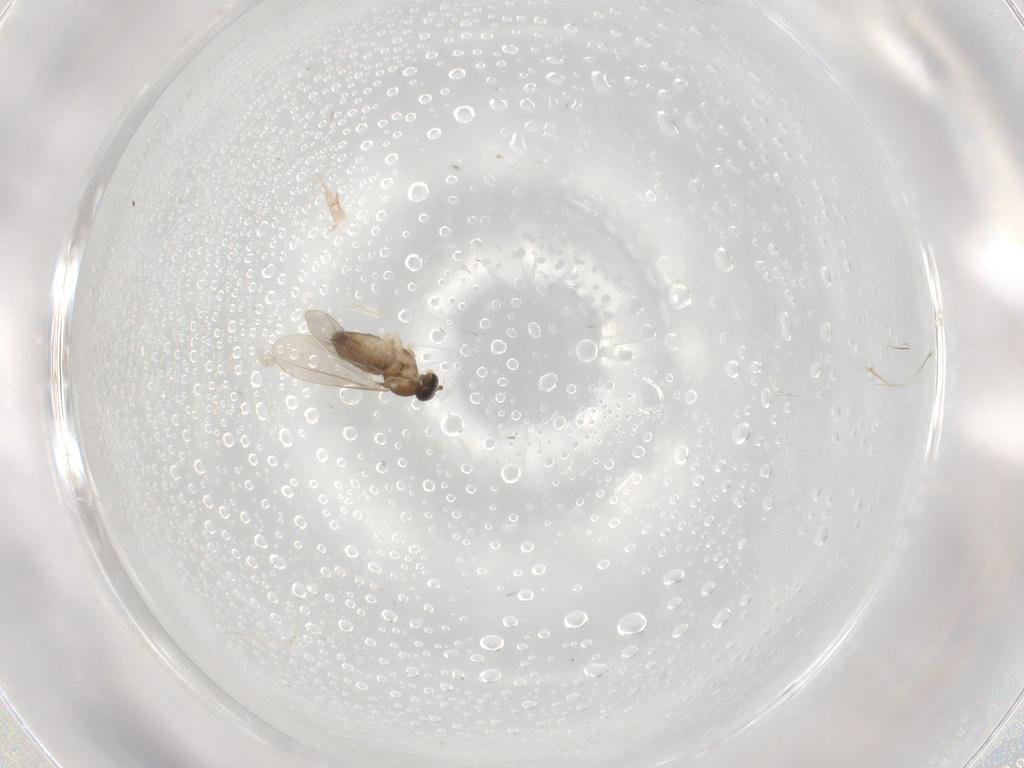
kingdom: Animalia
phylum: Arthropoda
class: Insecta
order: Diptera
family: Cecidomyiidae
